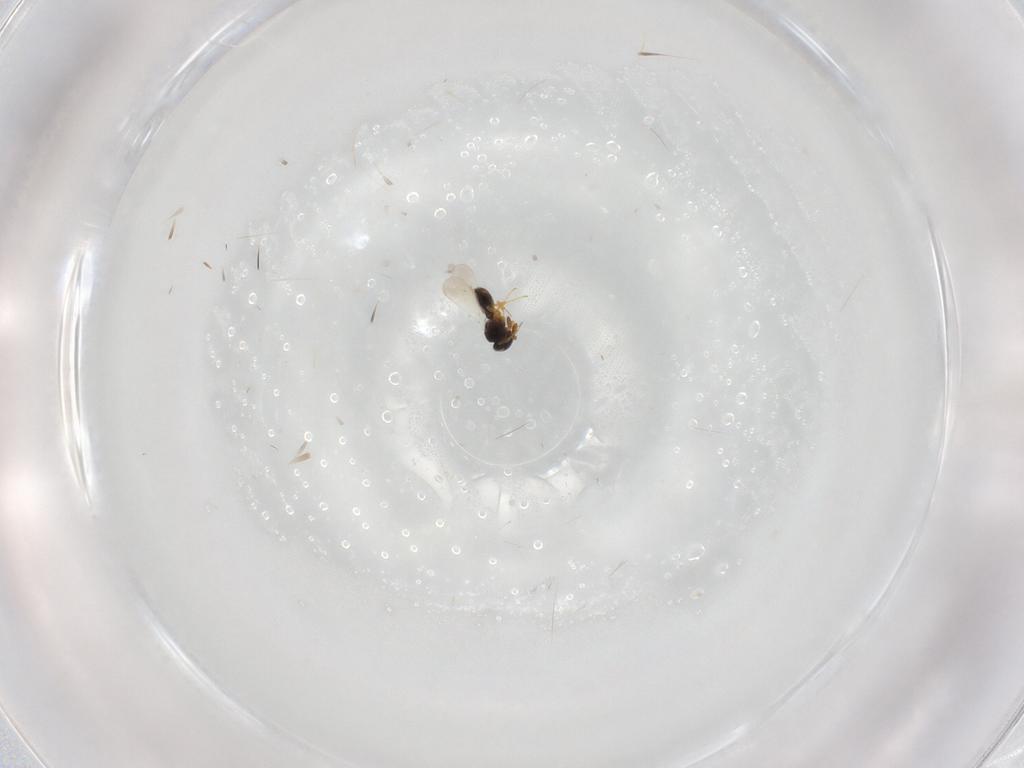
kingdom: Animalia
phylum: Arthropoda
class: Insecta
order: Hymenoptera
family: Platygastridae
